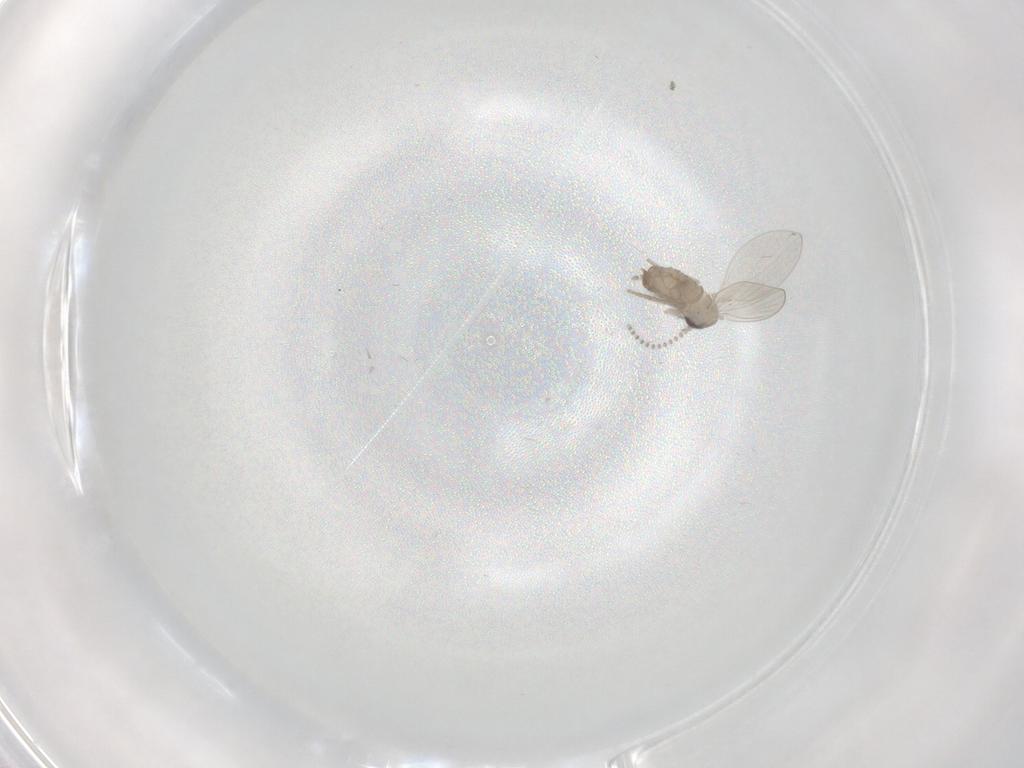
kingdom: Animalia
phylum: Arthropoda
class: Insecta
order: Diptera
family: Psychodidae
